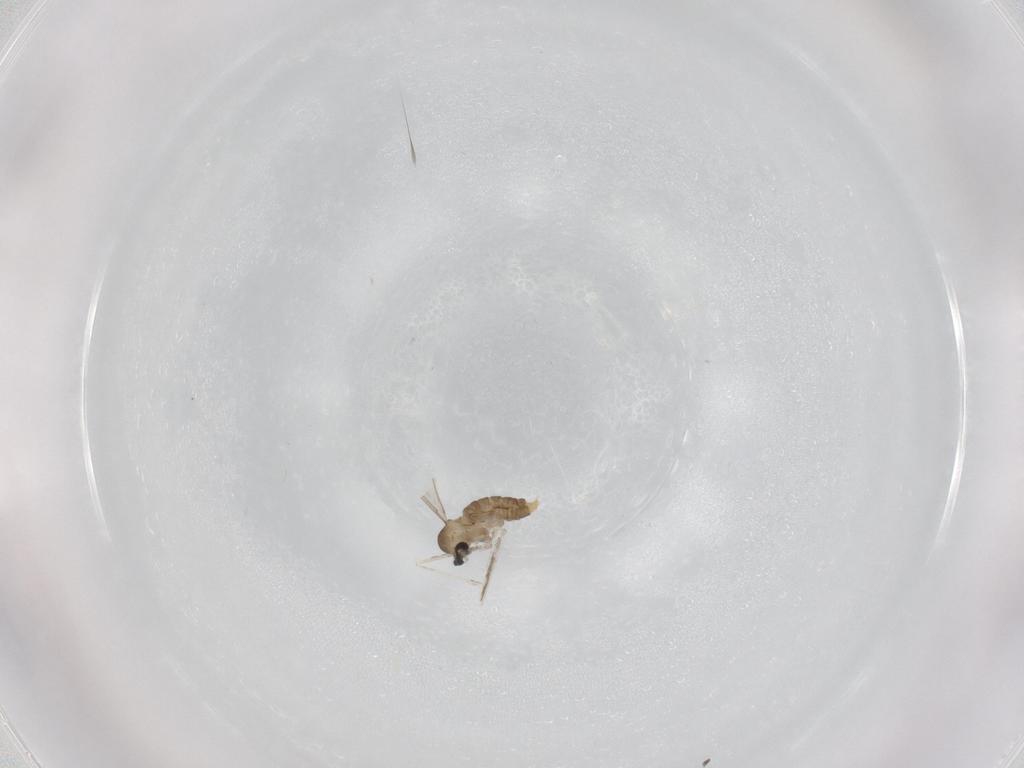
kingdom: Animalia
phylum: Arthropoda
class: Insecta
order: Diptera
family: Cecidomyiidae
